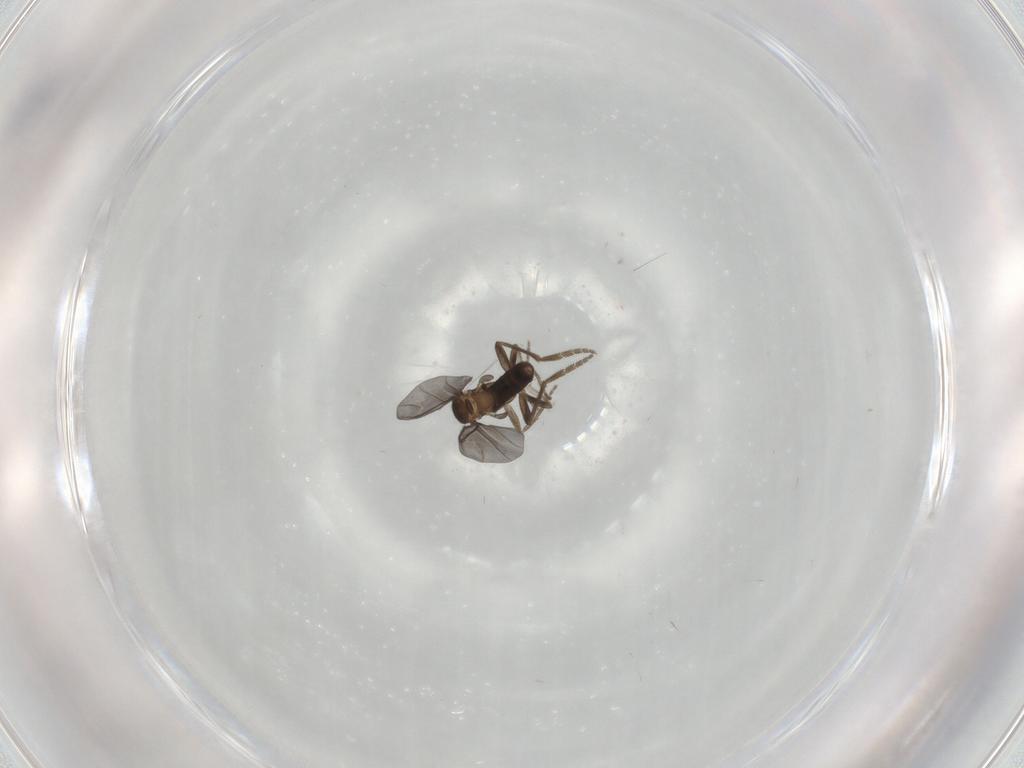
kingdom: Animalia
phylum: Arthropoda
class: Insecta
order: Diptera
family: Phoridae
